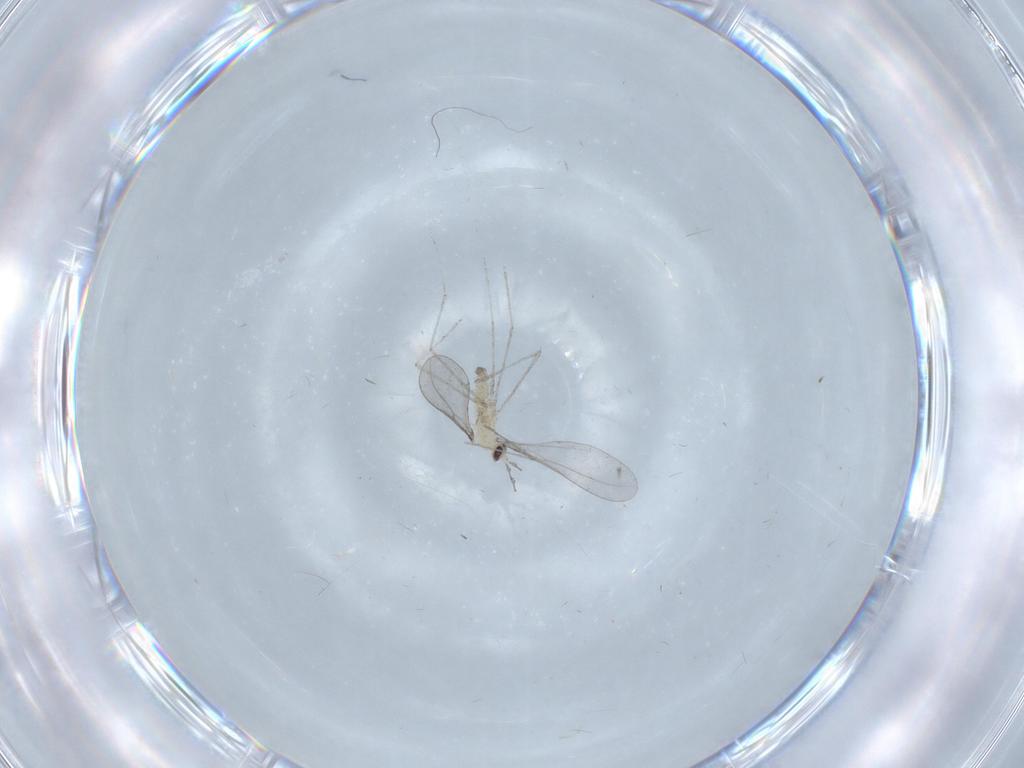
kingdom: Animalia
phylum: Arthropoda
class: Insecta
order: Diptera
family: Cecidomyiidae
